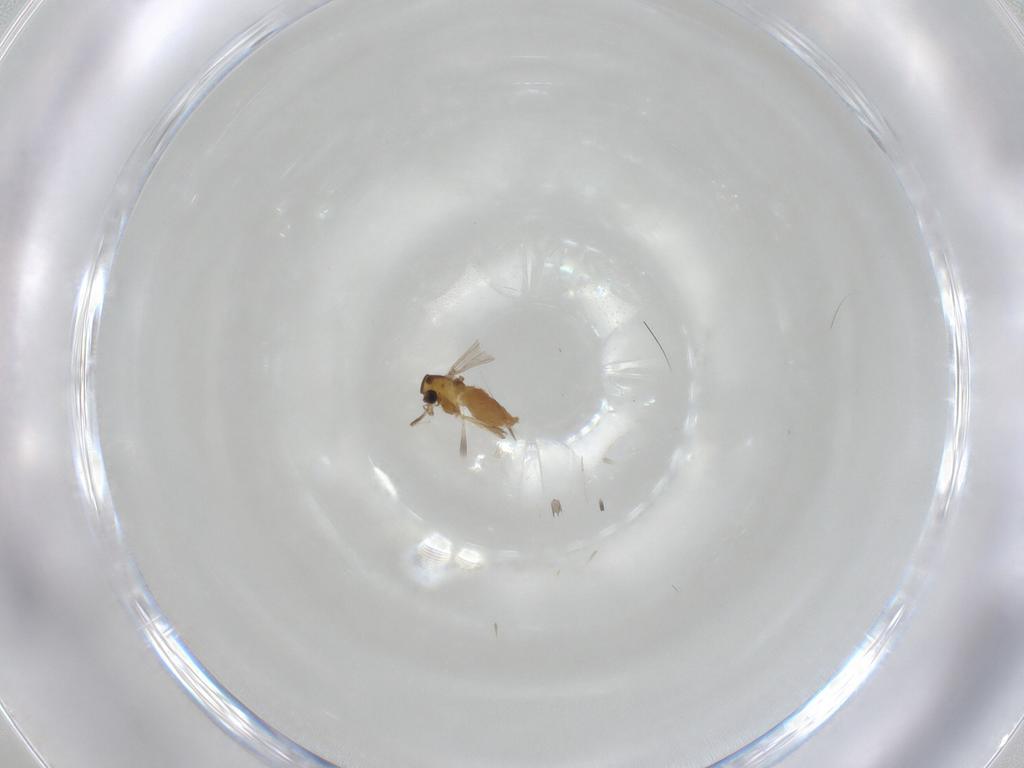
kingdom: Animalia
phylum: Arthropoda
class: Insecta
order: Diptera
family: Chironomidae
